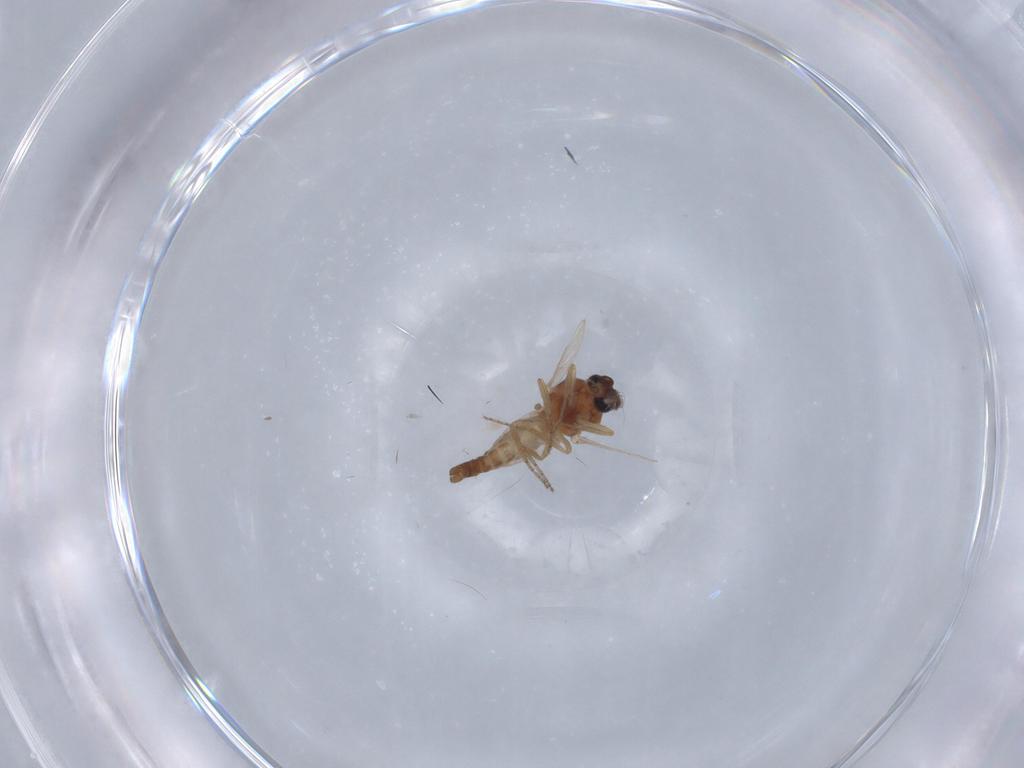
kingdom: Animalia
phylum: Arthropoda
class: Insecta
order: Diptera
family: Ceratopogonidae
